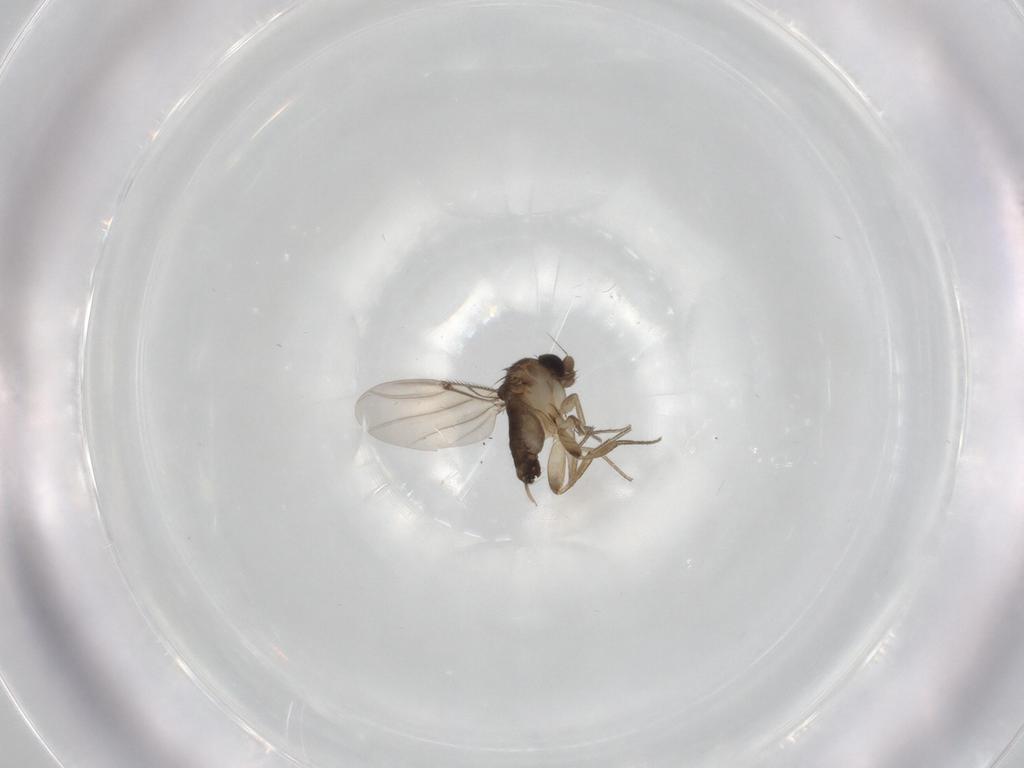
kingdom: Animalia
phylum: Arthropoda
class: Insecta
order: Diptera
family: Phoridae
